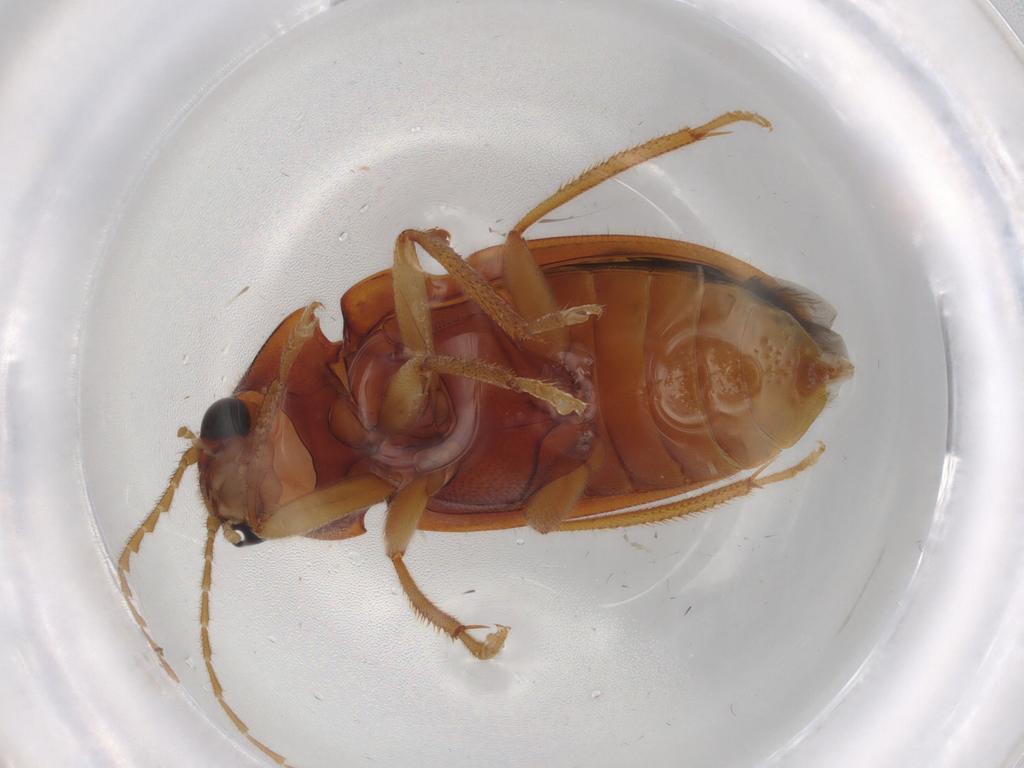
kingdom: Animalia
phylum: Arthropoda
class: Insecta
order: Coleoptera
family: Ptilodactylidae
